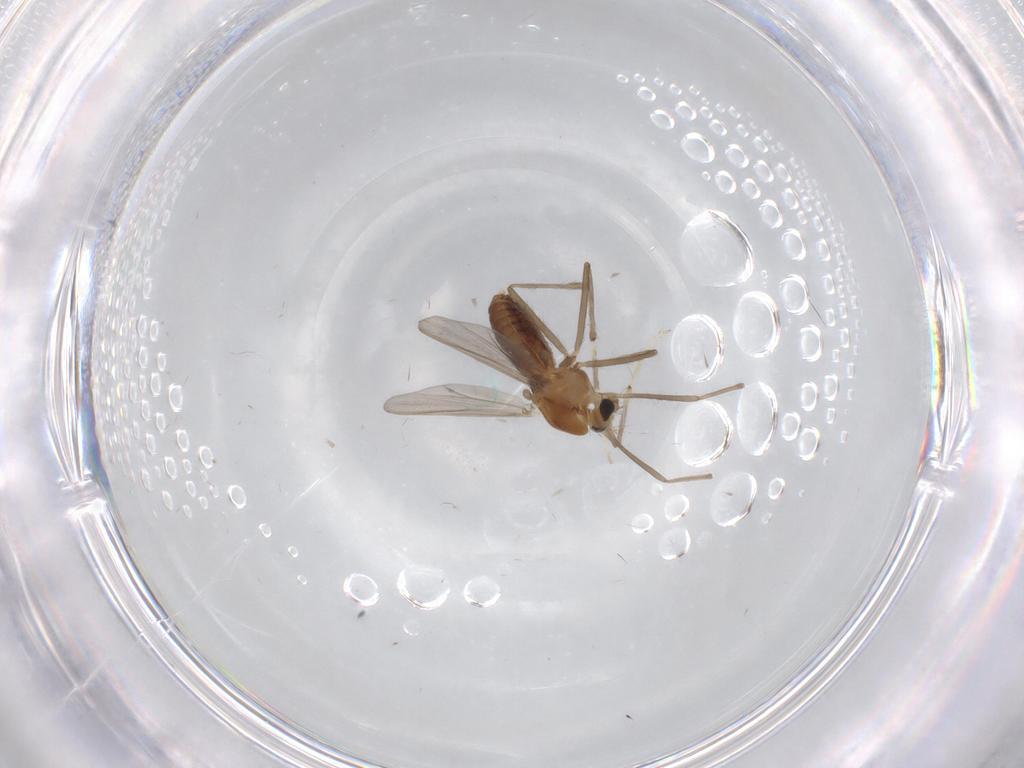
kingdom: Animalia
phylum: Arthropoda
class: Insecta
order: Diptera
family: Chironomidae
